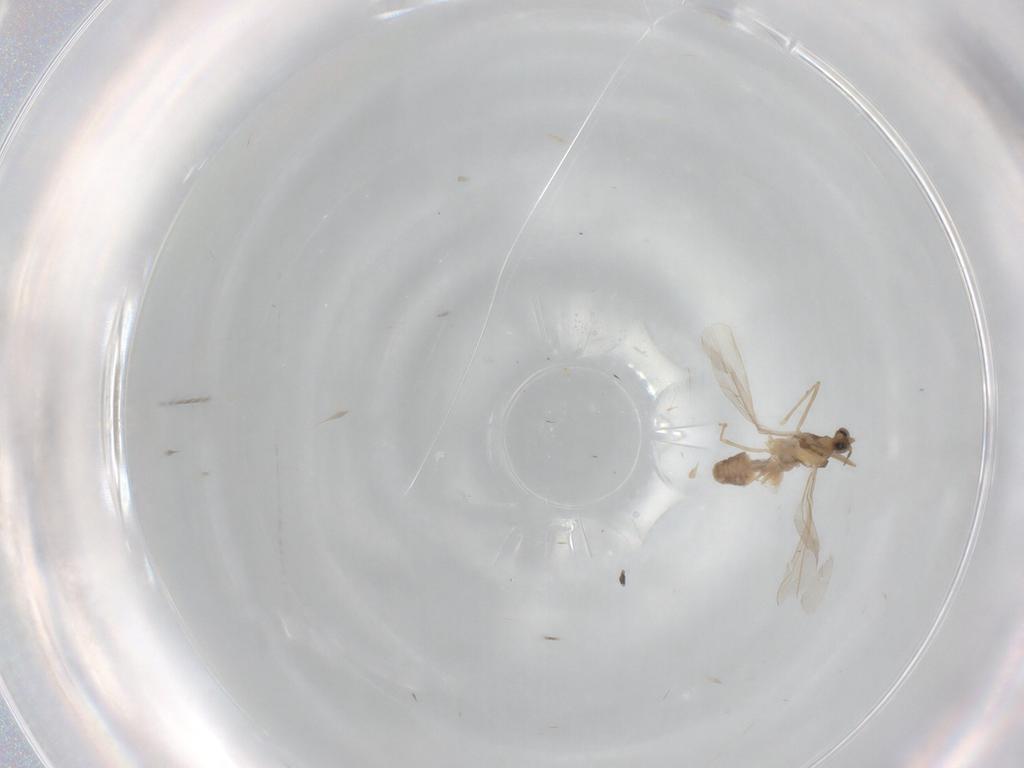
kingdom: Animalia
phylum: Arthropoda
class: Insecta
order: Diptera
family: Cecidomyiidae
